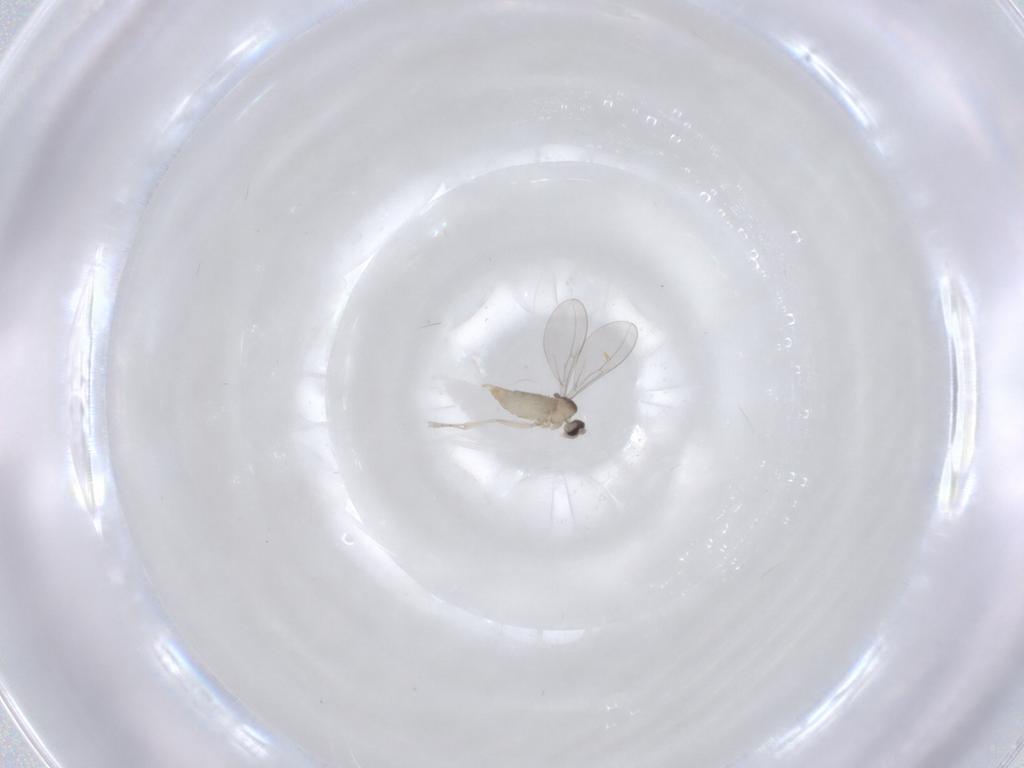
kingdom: Animalia
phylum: Arthropoda
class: Insecta
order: Diptera
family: Cecidomyiidae
